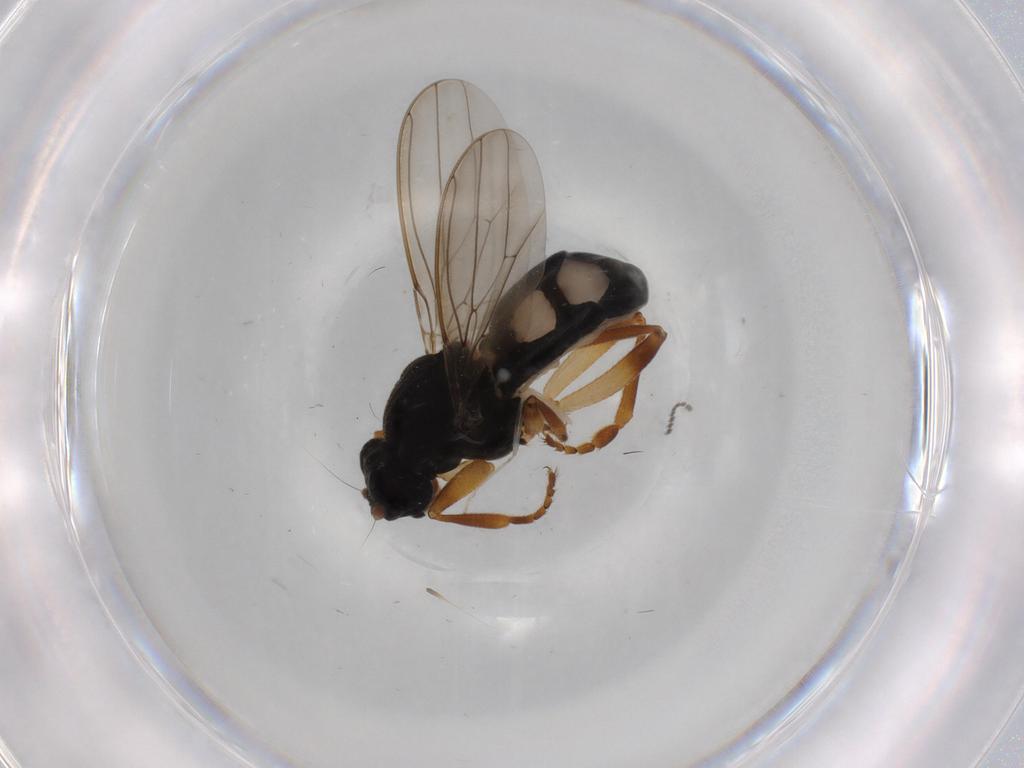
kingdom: Animalia
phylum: Arthropoda
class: Insecta
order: Diptera
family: Sphaeroceridae
